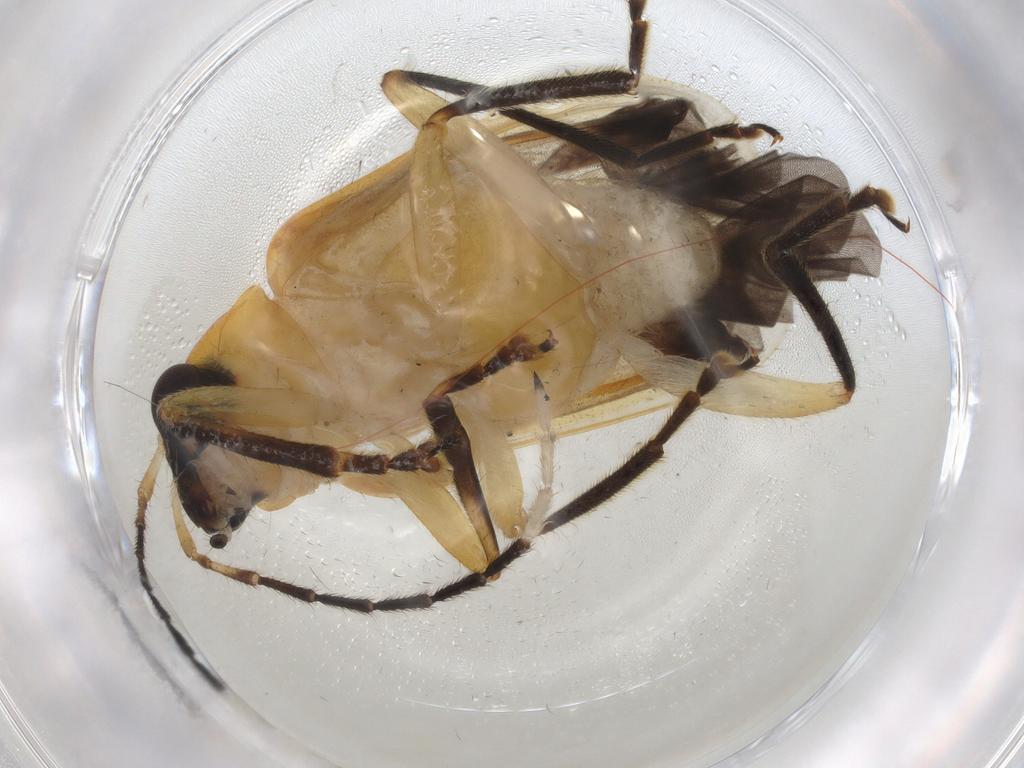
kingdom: Animalia
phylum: Arthropoda
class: Insecta
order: Coleoptera
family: Chrysomelidae
